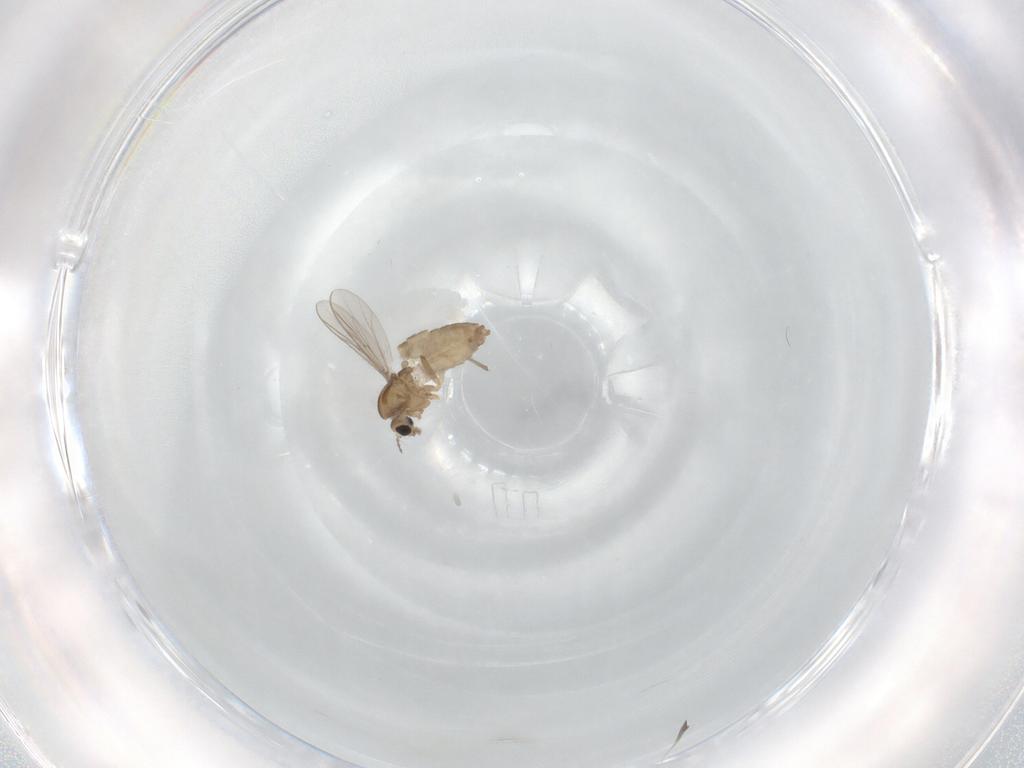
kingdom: Animalia
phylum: Arthropoda
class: Insecta
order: Diptera
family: Chironomidae
